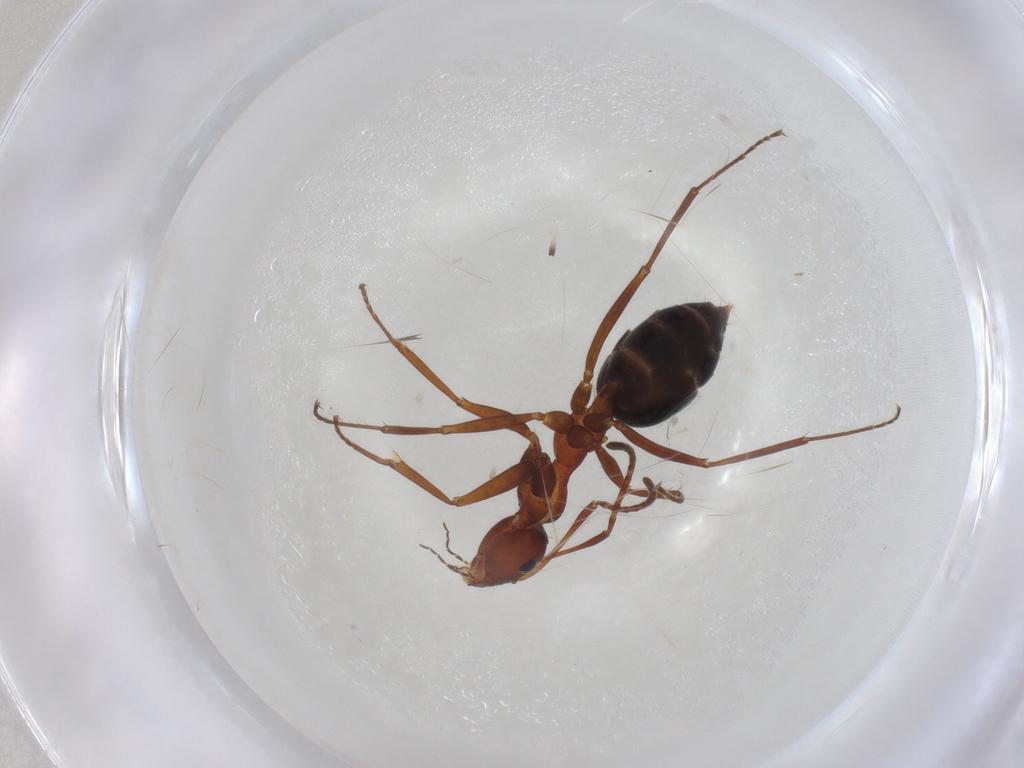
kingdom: Animalia
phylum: Arthropoda
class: Insecta
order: Hymenoptera
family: Formicidae
